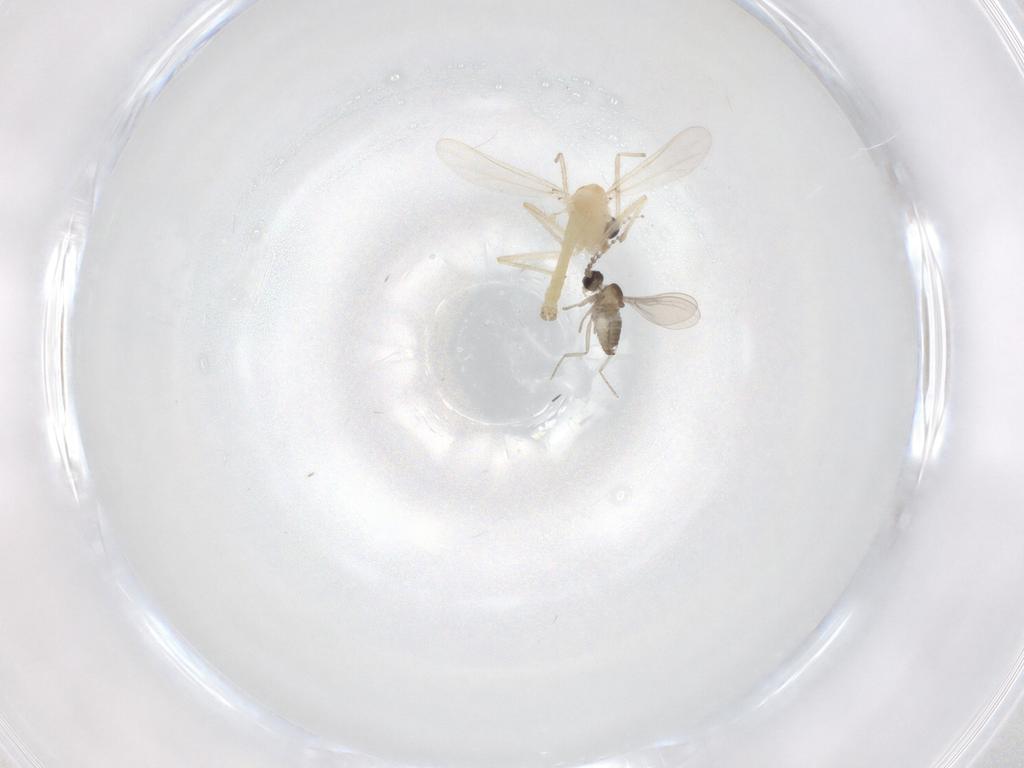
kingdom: Animalia
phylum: Arthropoda
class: Insecta
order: Diptera
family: Chironomidae
